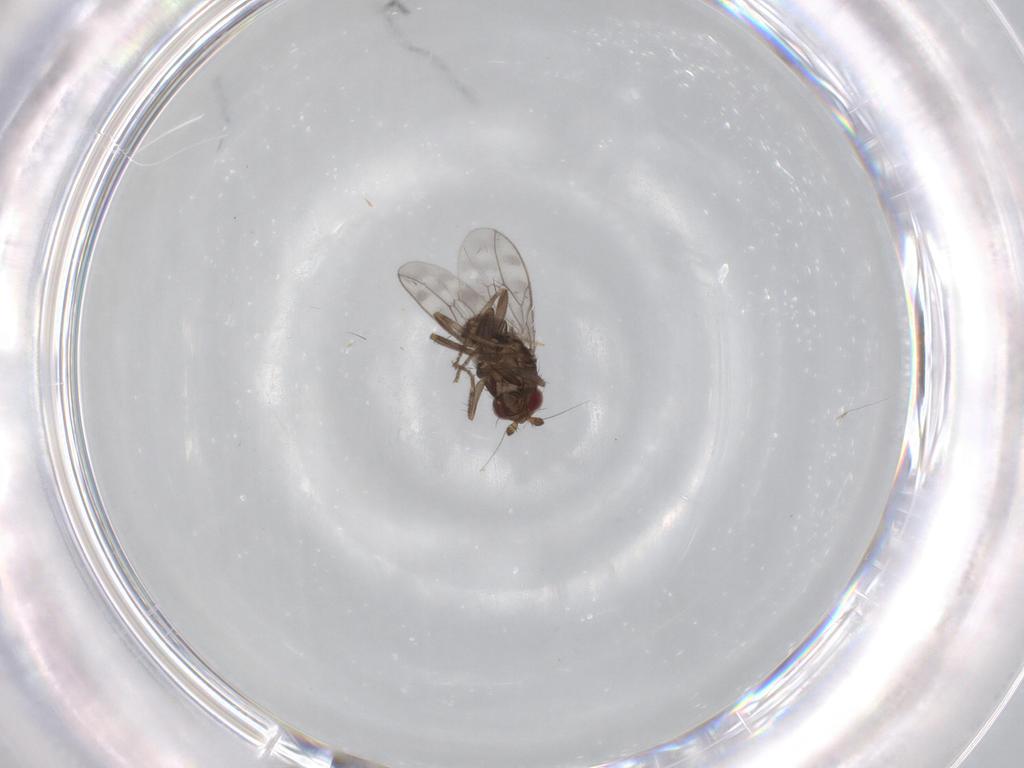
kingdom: Animalia
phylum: Arthropoda
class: Insecta
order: Diptera
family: Sphaeroceridae
